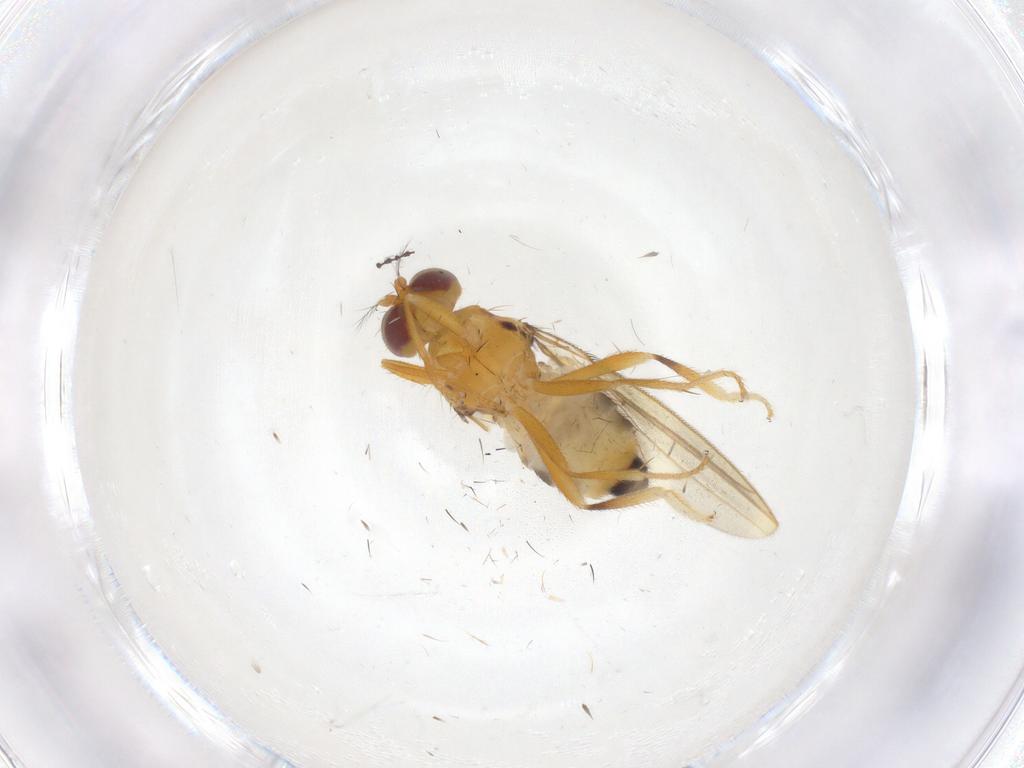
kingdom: Animalia
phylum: Arthropoda
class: Insecta
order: Diptera
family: Periscelididae
